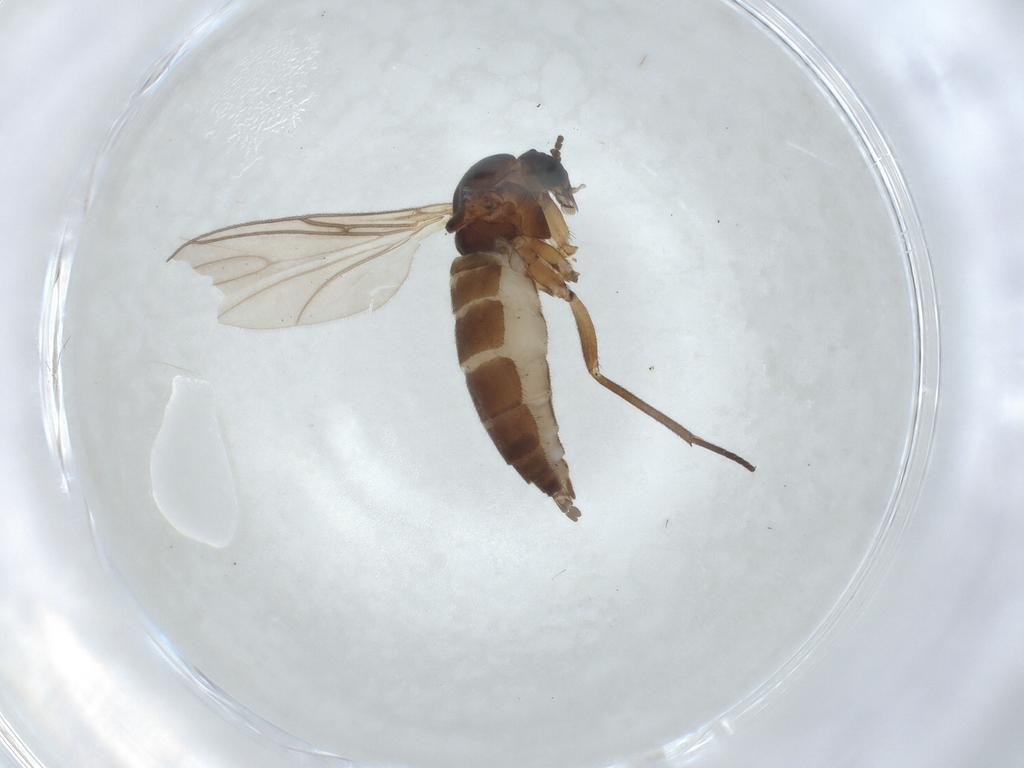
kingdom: Animalia
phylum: Arthropoda
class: Insecta
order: Diptera
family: Sciaridae
